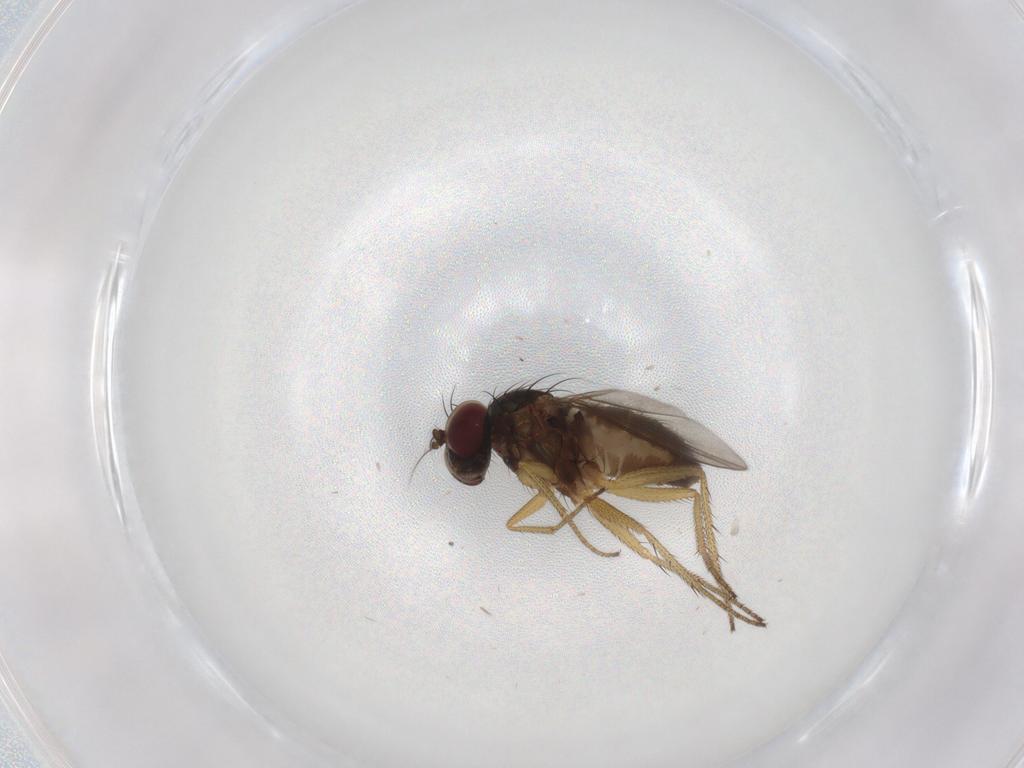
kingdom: Animalia
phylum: Arthropoda
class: Insecta
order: Diptera
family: Dolichopodidae
